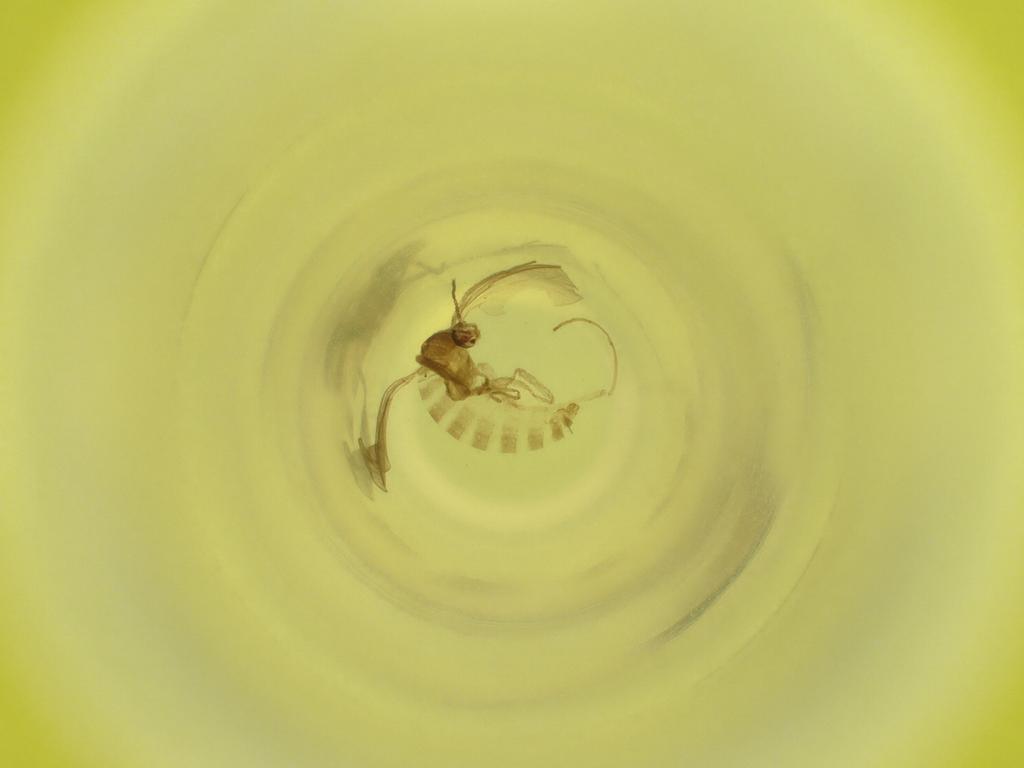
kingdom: Animalia
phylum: Arthropoda
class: Insecta
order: Diptera
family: Cecidomyiidae
